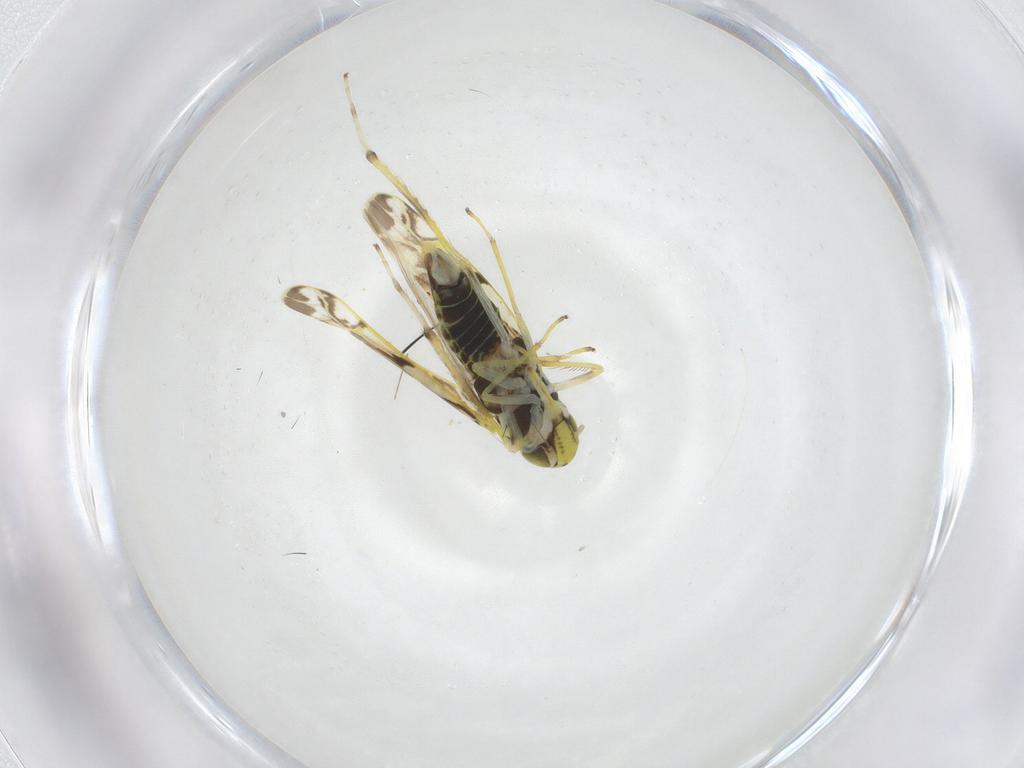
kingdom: Animalia
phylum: Arthropoda
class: Insecta
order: Hemiptera
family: Cicadellidae
